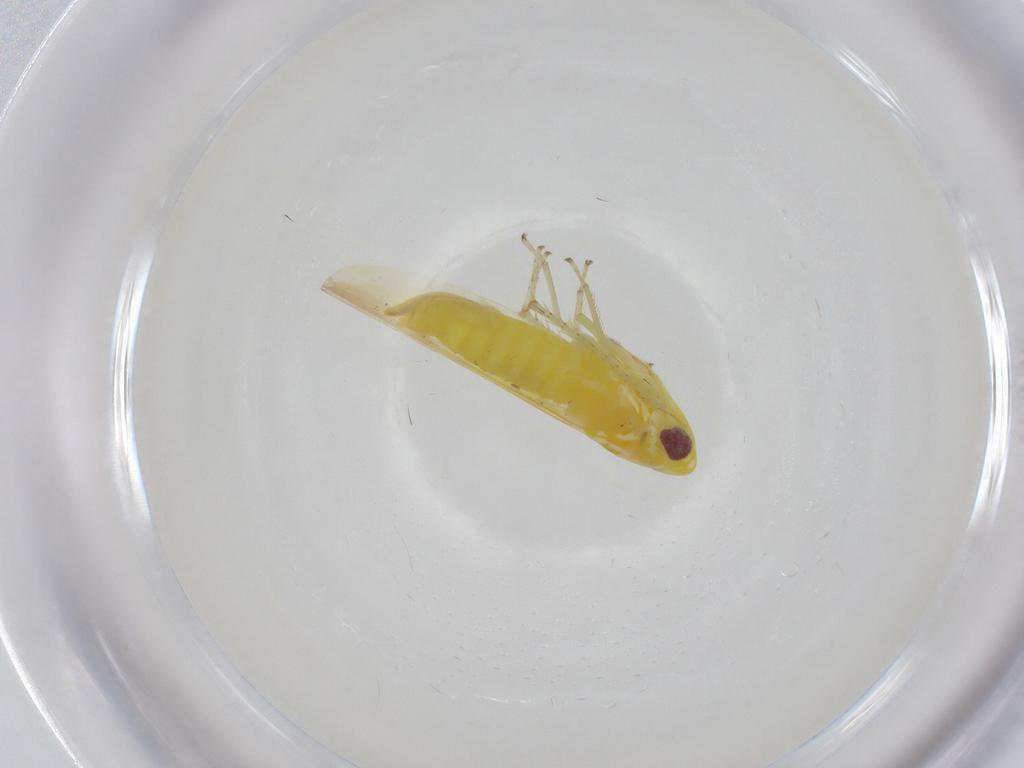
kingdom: Animalia
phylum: Arthropoda
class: Insecta
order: Hemiptera
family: Cicadellidae
